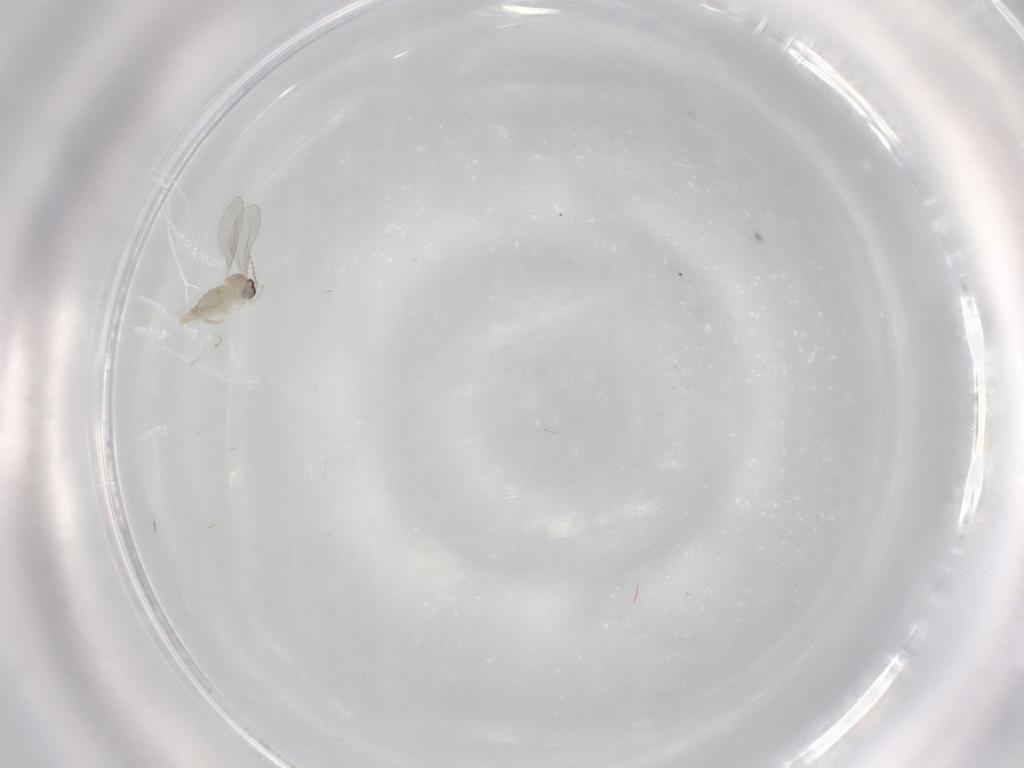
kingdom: Animalia
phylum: Arthropoda
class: Insecta
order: Diptera
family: Cecidomyiidae
